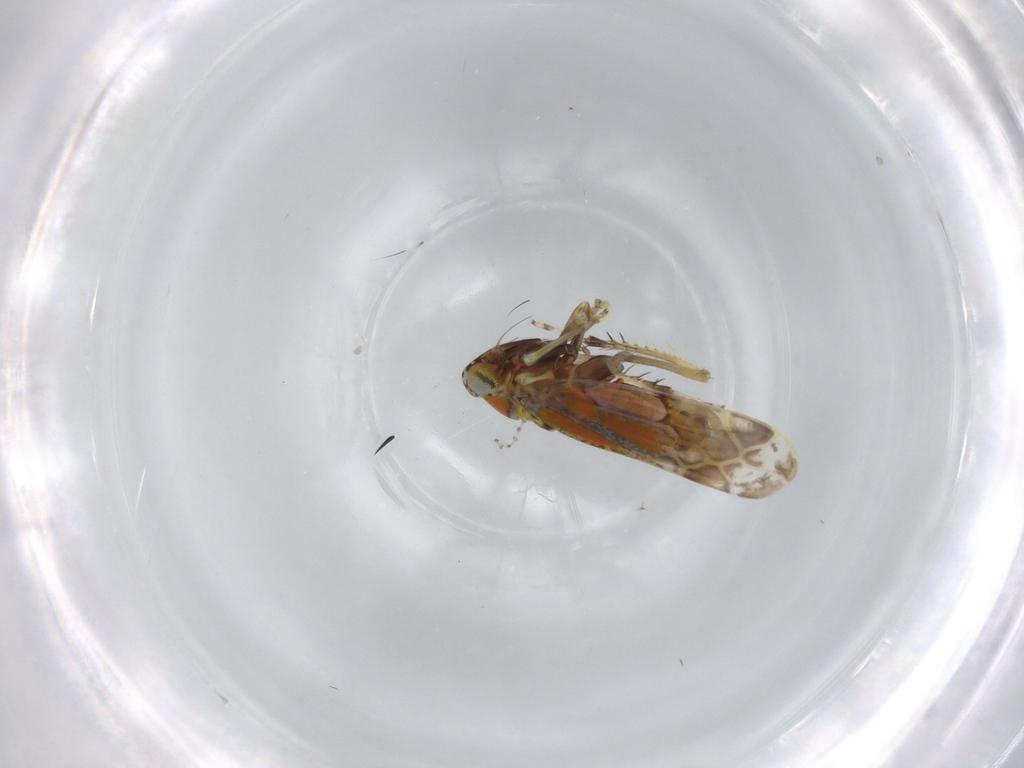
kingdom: Animalia
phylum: Arthropoda
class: Insecta
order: Hemiptera
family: Cicadellidae
